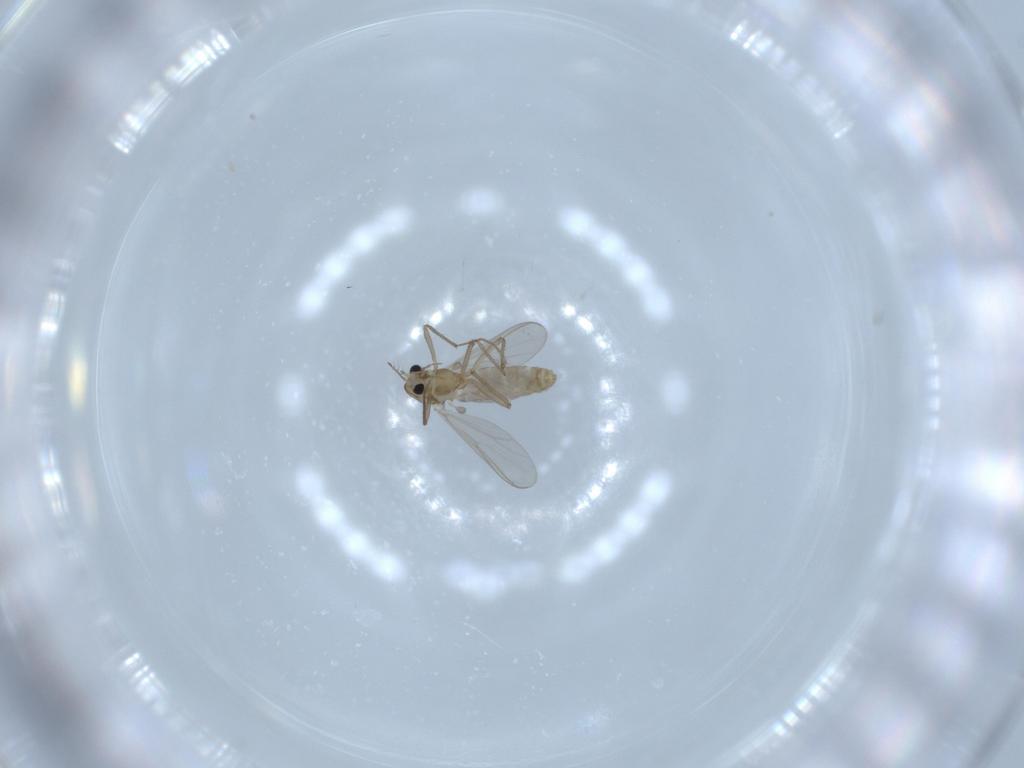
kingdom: Animalia
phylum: Arthropoda
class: Insecta
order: Diptera
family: Chironomidae
